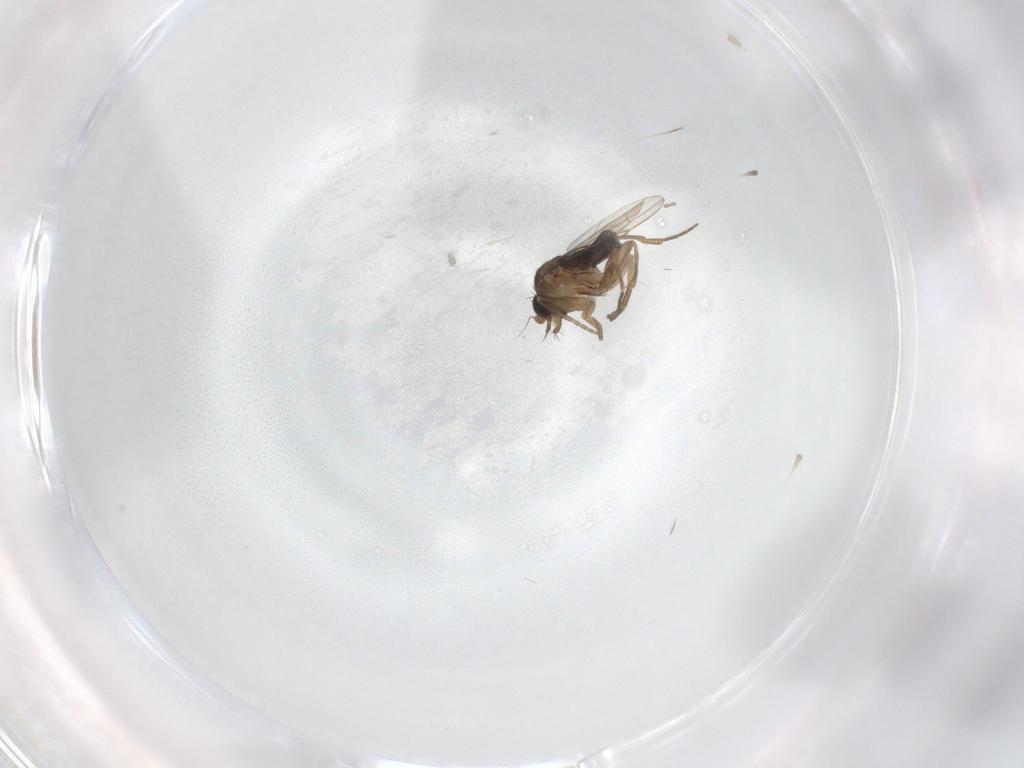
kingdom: Animalia
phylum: Arthropoda
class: Insecta
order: Diptera
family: Phoridae
